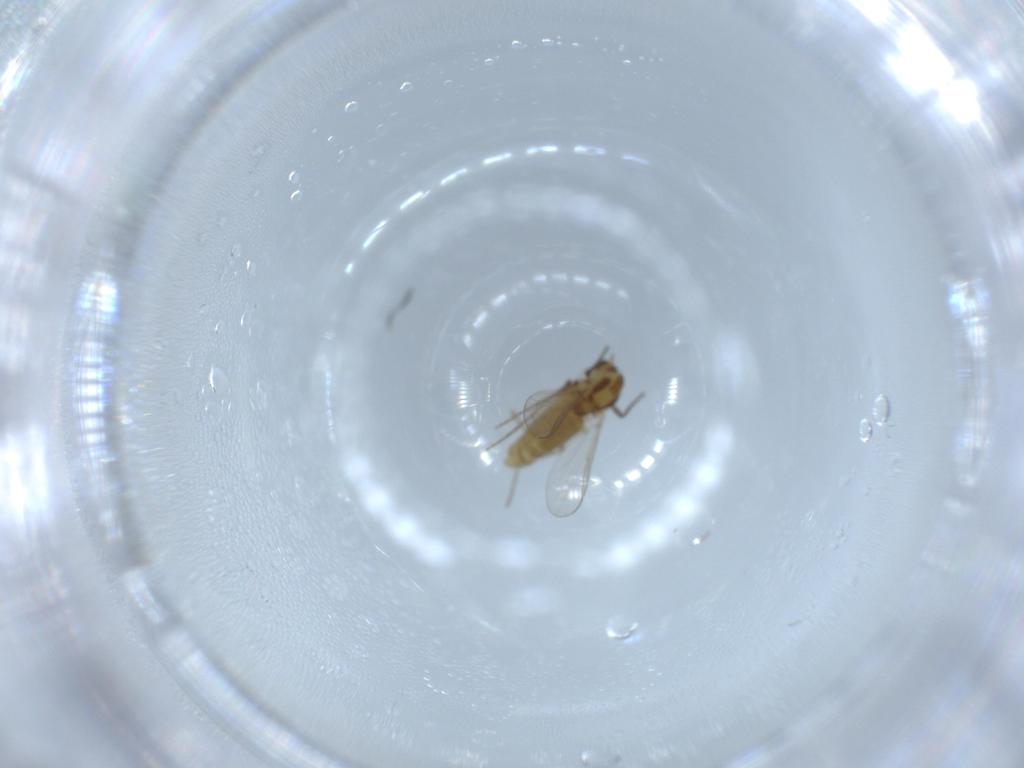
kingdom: Animalia
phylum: Arthropoda
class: Insecta
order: Diptera
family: Chironomidae
